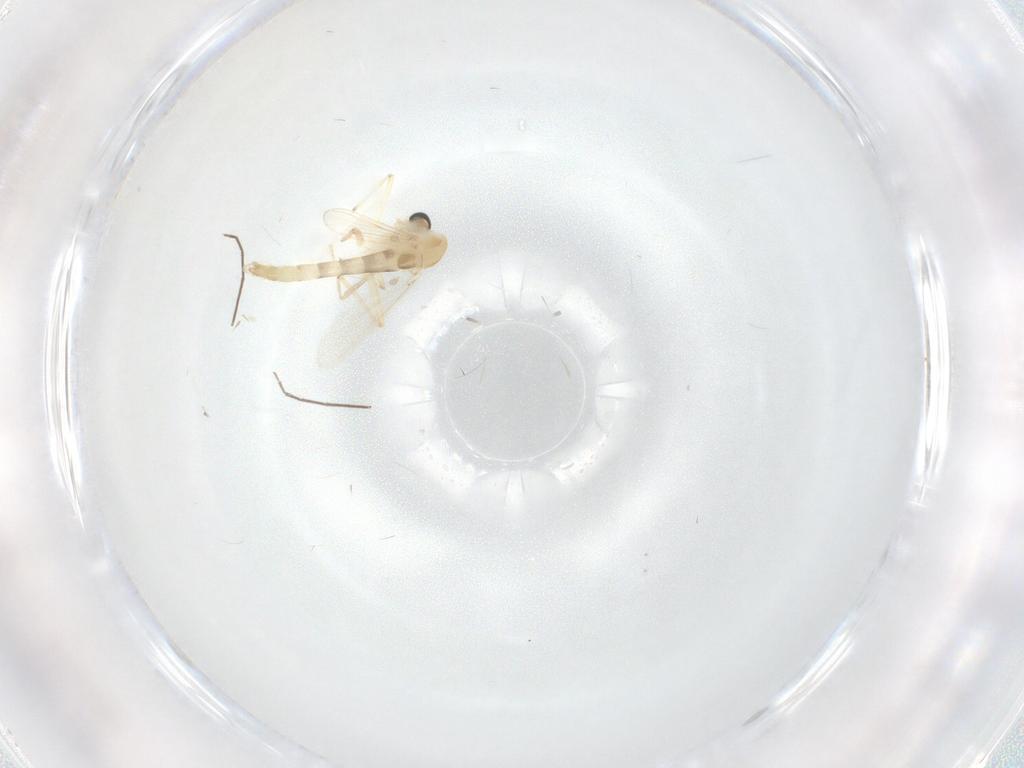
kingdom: Animalia
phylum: Arthropoda
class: Insecta
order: Diptera
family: Chironomidae
